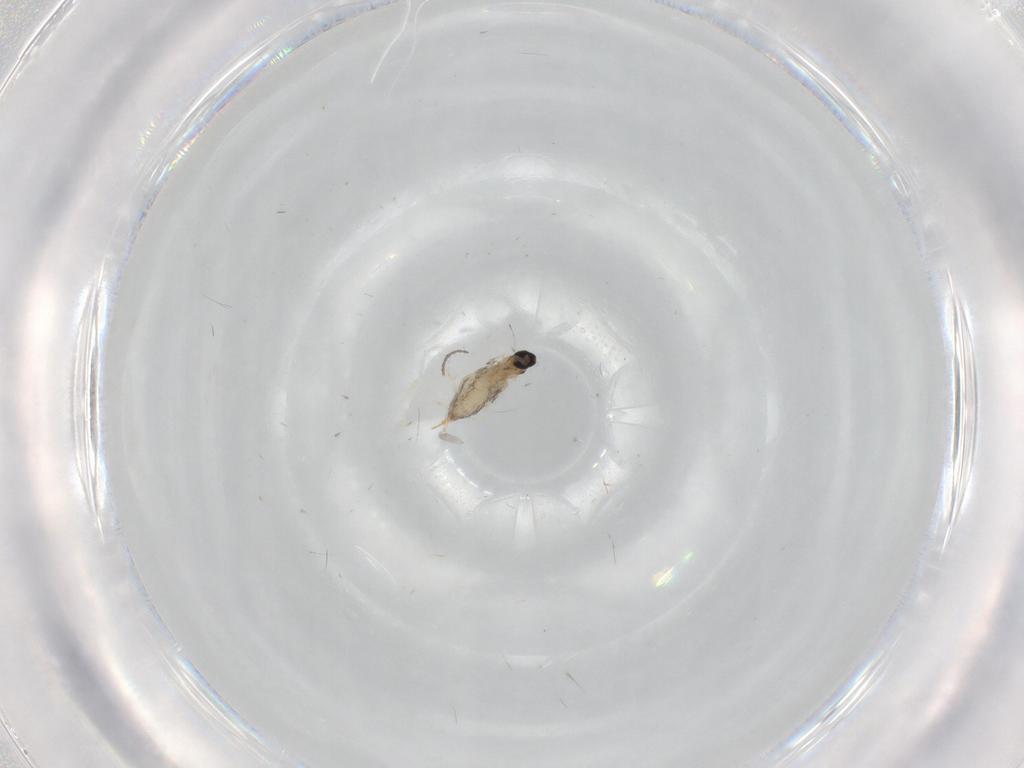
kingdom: Animalia
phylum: Arthropoda
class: Insecta
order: Diptera
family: Cecidomyiidae
